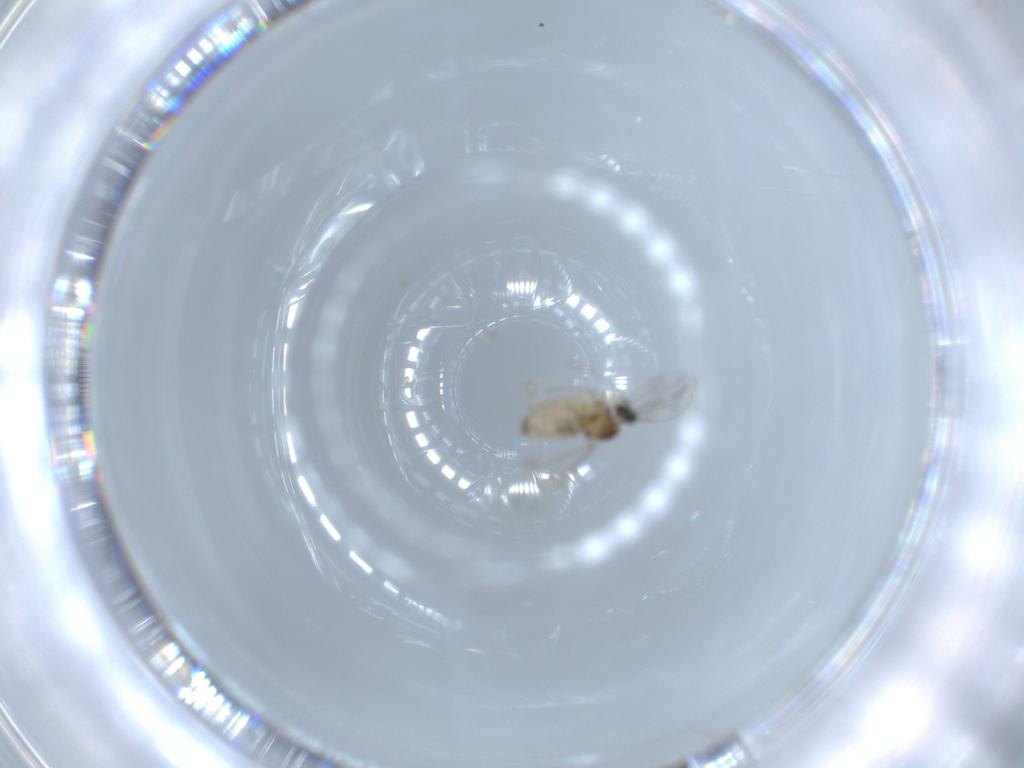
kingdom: Animalia
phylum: Arthropoda
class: Insecta
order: Diptera
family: Cecidomyiidae
